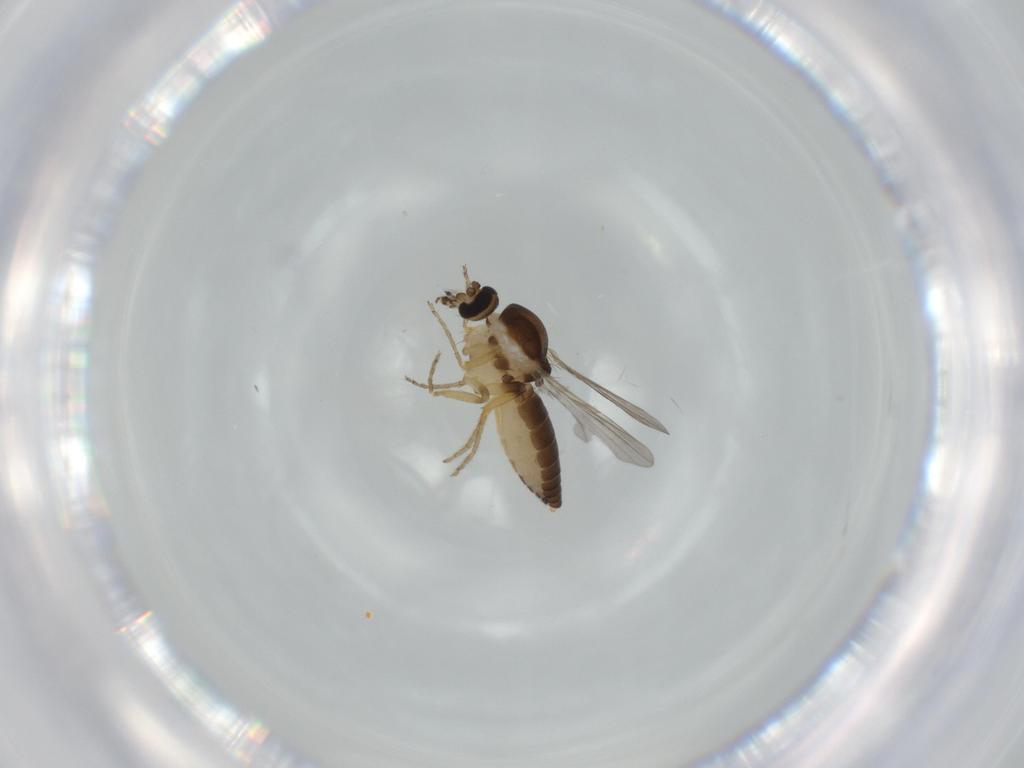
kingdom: Animalia
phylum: Arthropoda
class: Insecta
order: Diptera
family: Ceratopogonidae
